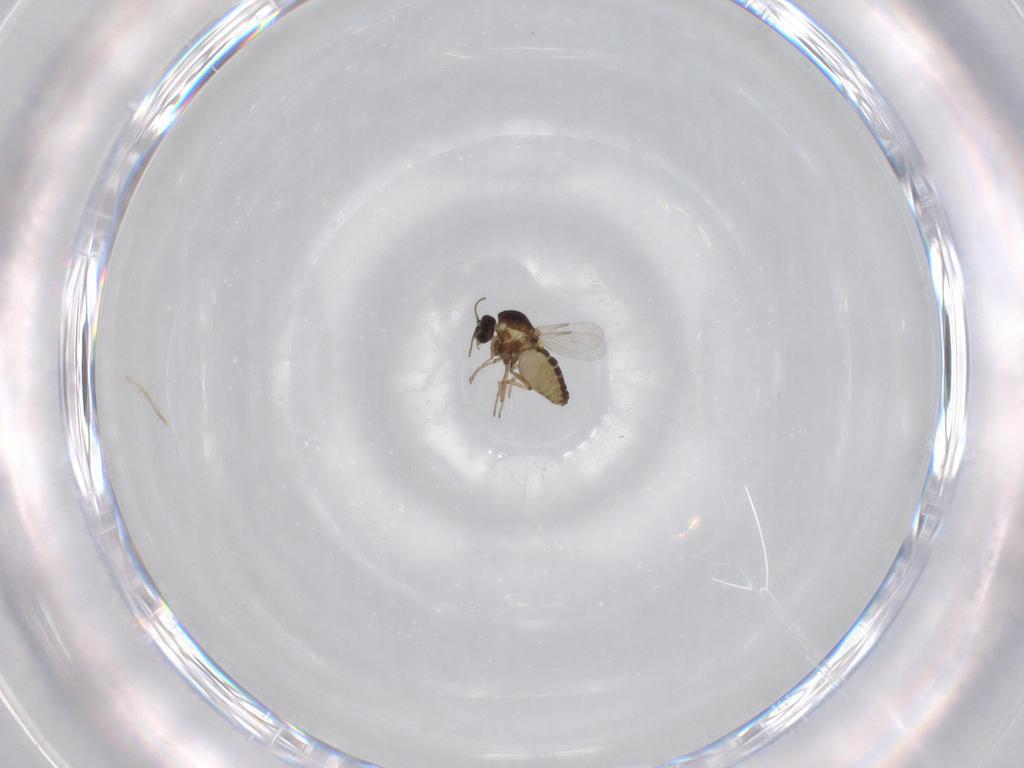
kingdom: Animalia
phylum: Arthropoda
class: Insecta
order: Diptera
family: Ceratopogonidae
